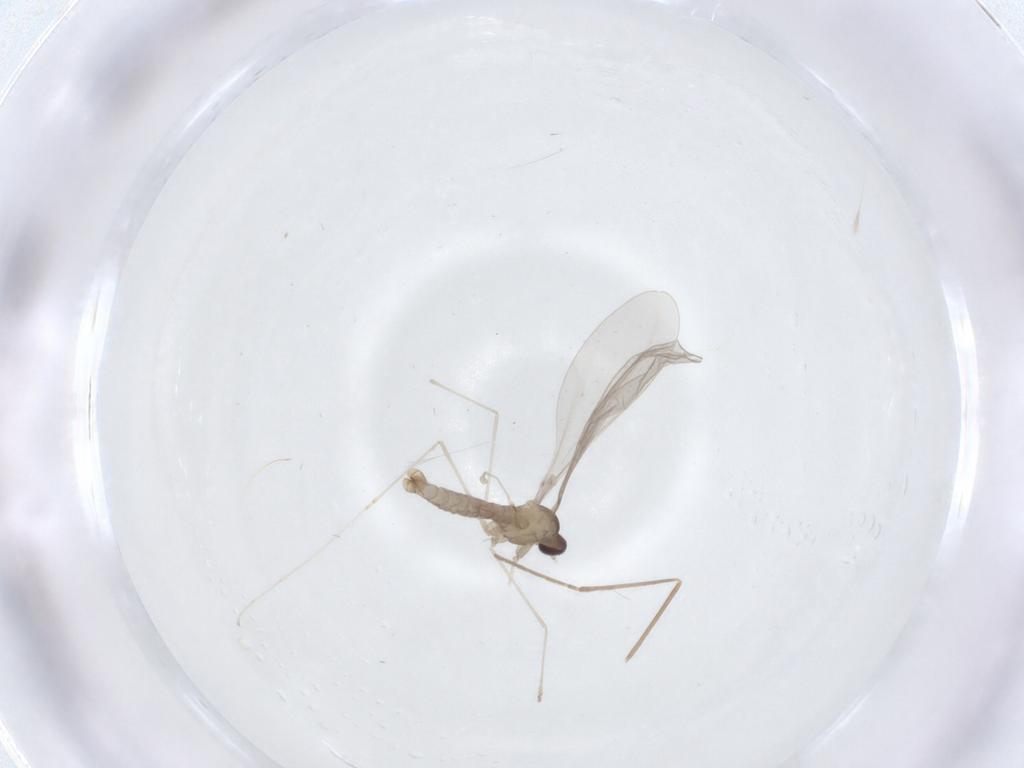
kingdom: Animalia
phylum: Arthropoda
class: Insecta
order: Diptera
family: Cecidomyiidae
